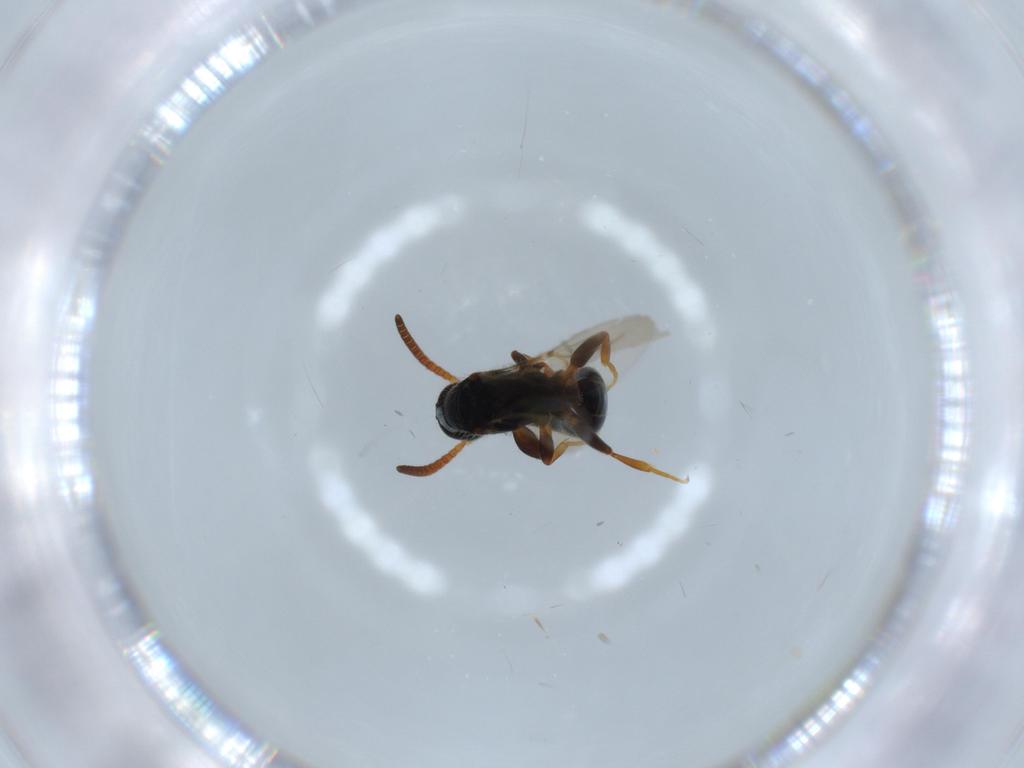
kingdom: Animalia
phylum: Arthropoda
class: Insecta
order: Hymenoptera
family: Bethylidae
